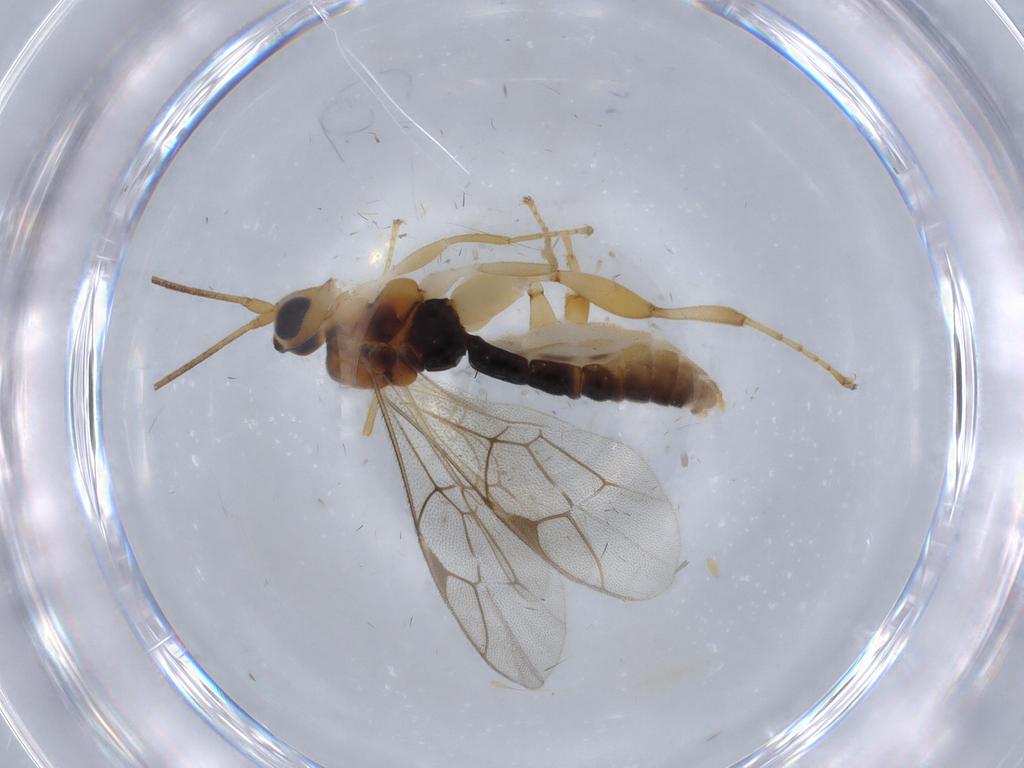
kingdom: Animalia
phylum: Arthropoda
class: Insecta
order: Hymenoptera
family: Ichneumonidae
